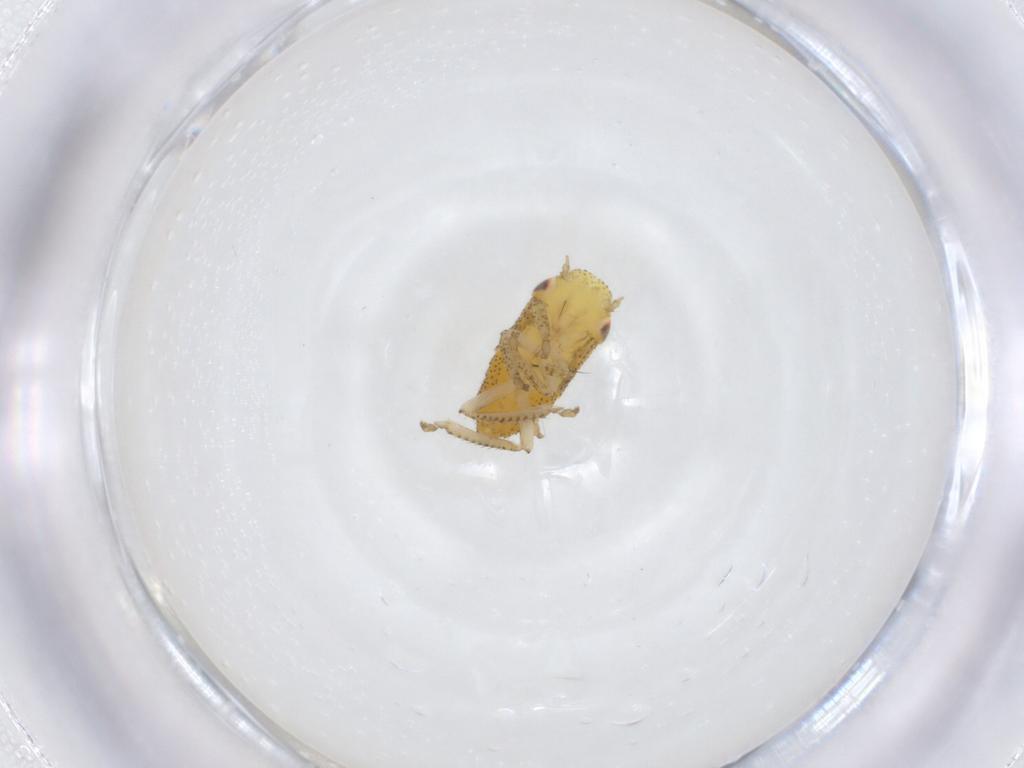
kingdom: Animalia
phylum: Arthropoda
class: Insecta
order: Hemiptera
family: Cicadellidae
